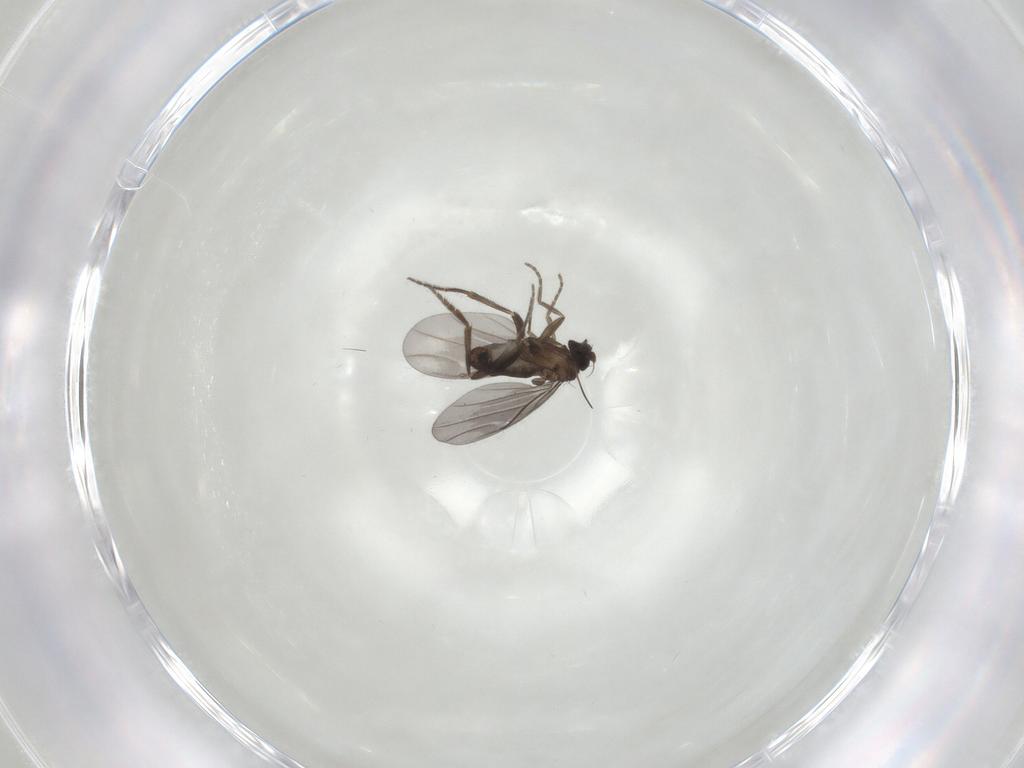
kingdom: Animalia
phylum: Arthropoda
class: Insecta
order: Diptera
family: Phoridae
